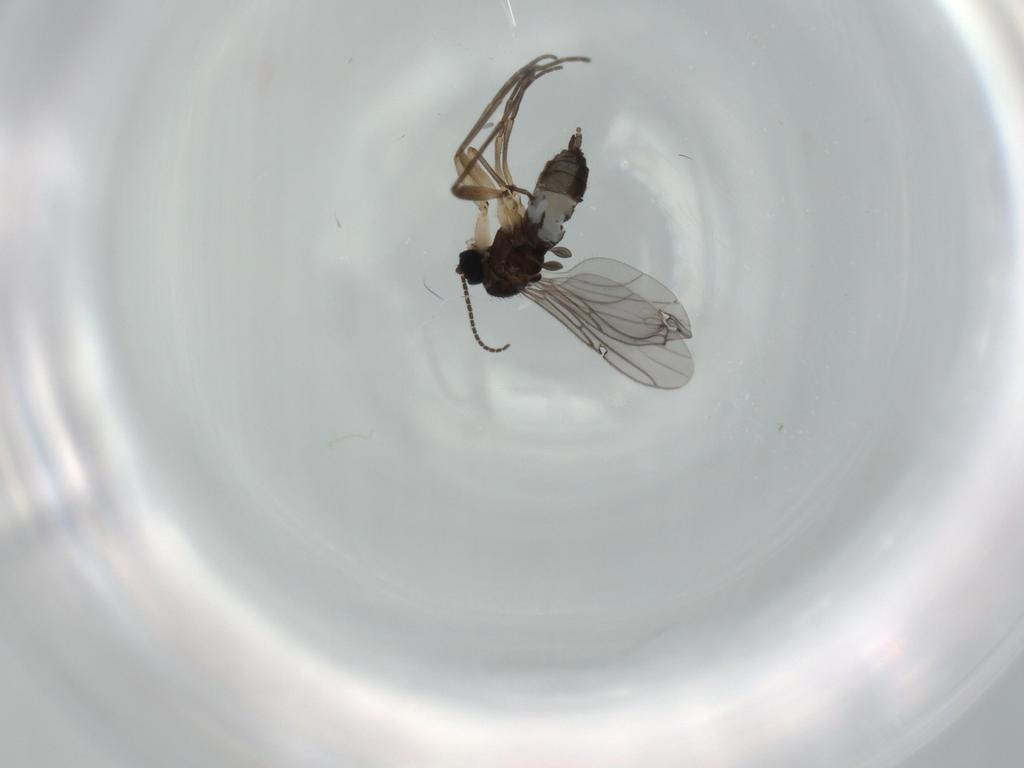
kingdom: Animalia
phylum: Arthropoda
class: Insecta
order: Diptera
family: Sciaridae
